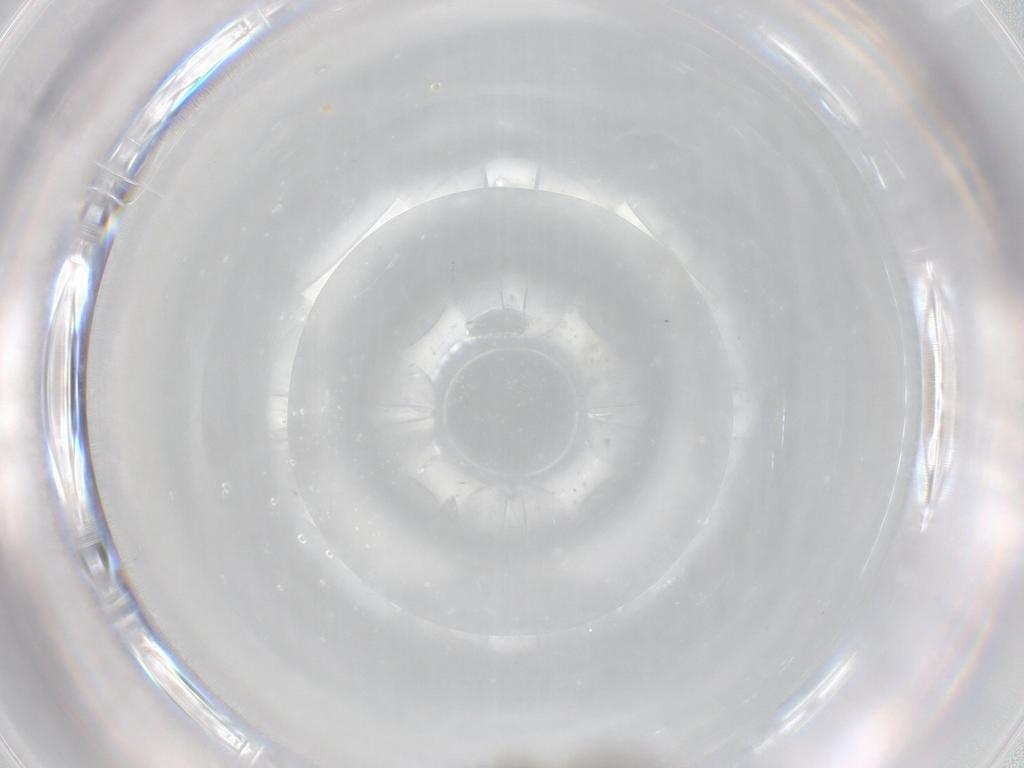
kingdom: Animalia
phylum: Arthropoda
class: Insecta
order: Hymenoptera
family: Mymaridae
